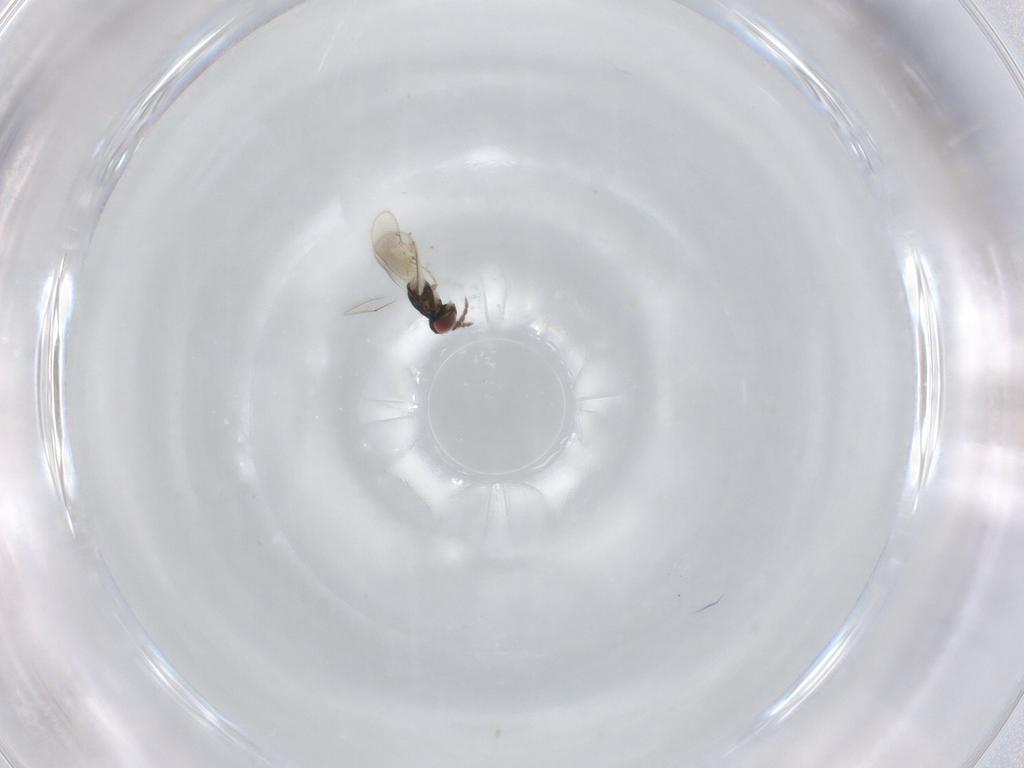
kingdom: Animalia
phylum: Arthropoda
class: Insecta
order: Hymenoptera
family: Eulophidae
